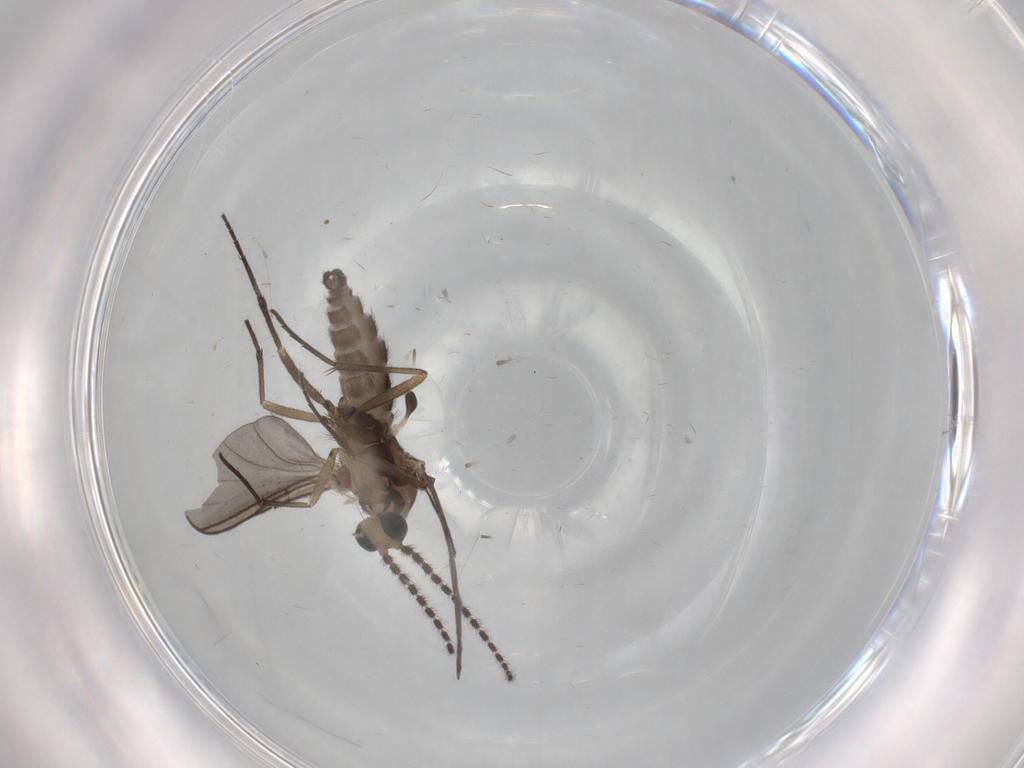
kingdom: Animalia
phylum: Arthropoda
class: Insecta
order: Diptera
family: Sciaridae
